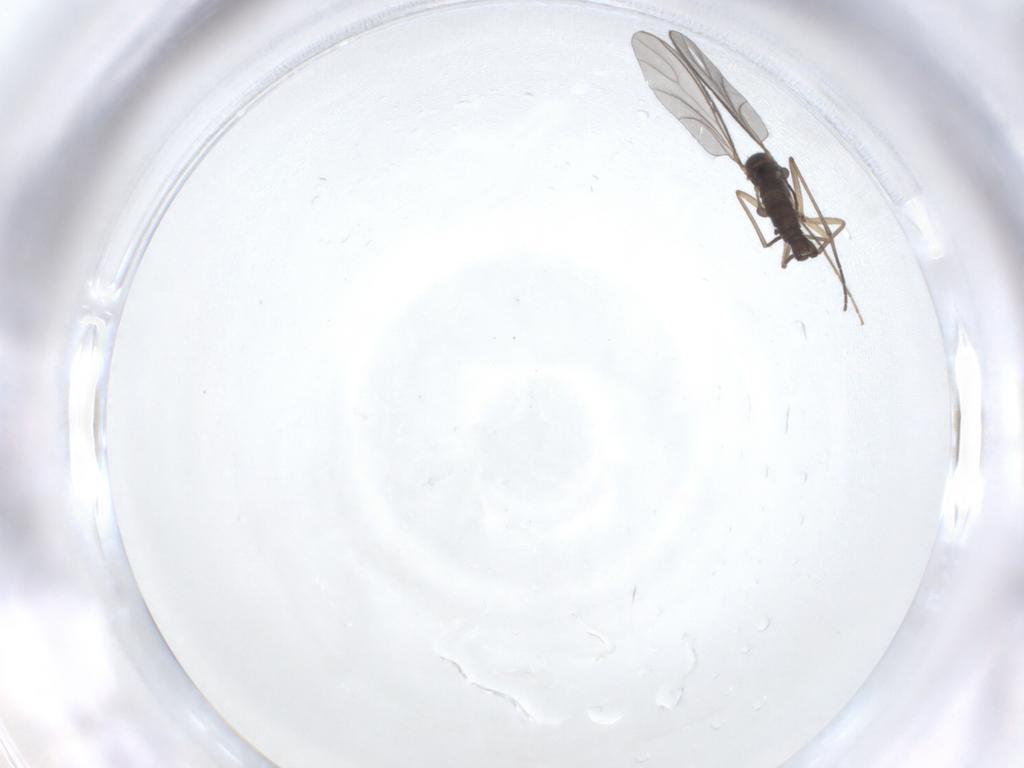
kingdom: Animalia
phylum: Arthropoda
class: Insecta
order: Diptera
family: Sciaridae
